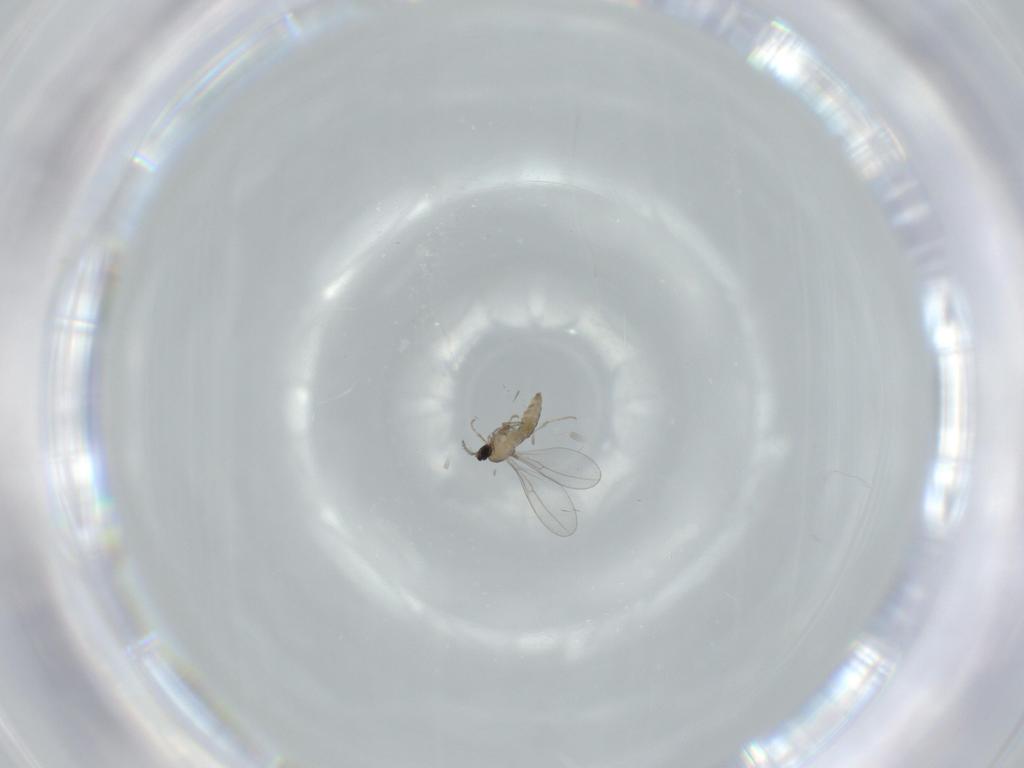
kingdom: Animalia
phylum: Arthropoda
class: Insecta
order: Diptera
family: Cecidomyiidae
